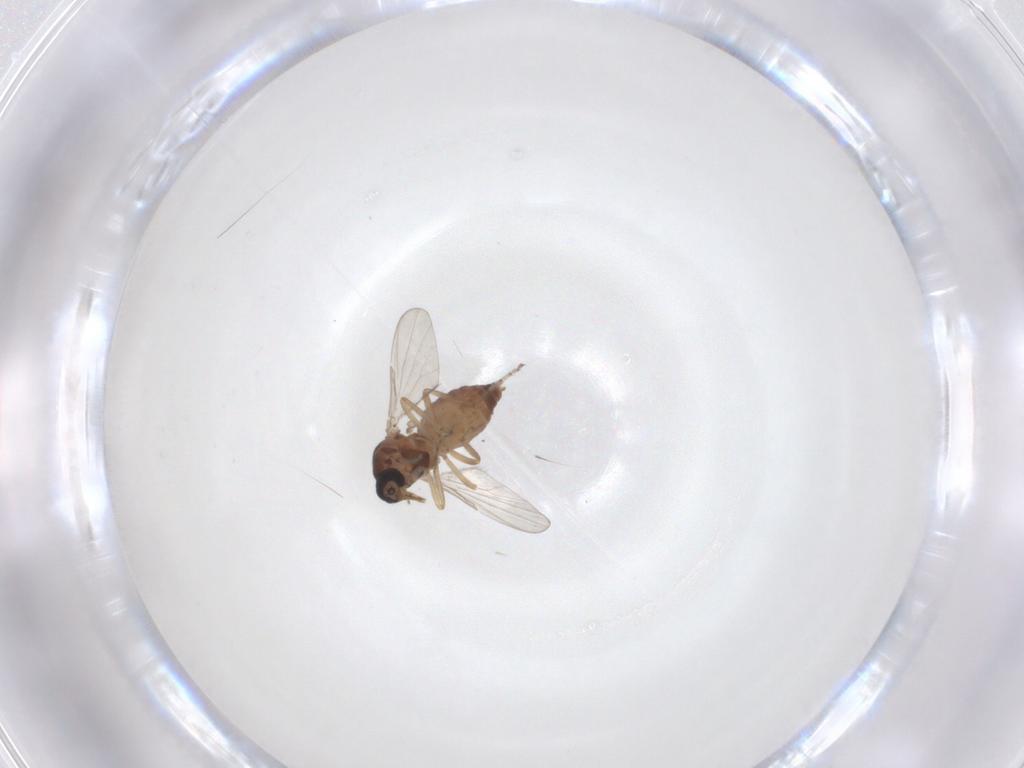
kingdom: Animalia
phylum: Arthropoda
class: Insecta
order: Diptera
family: Ceratopogonidae
